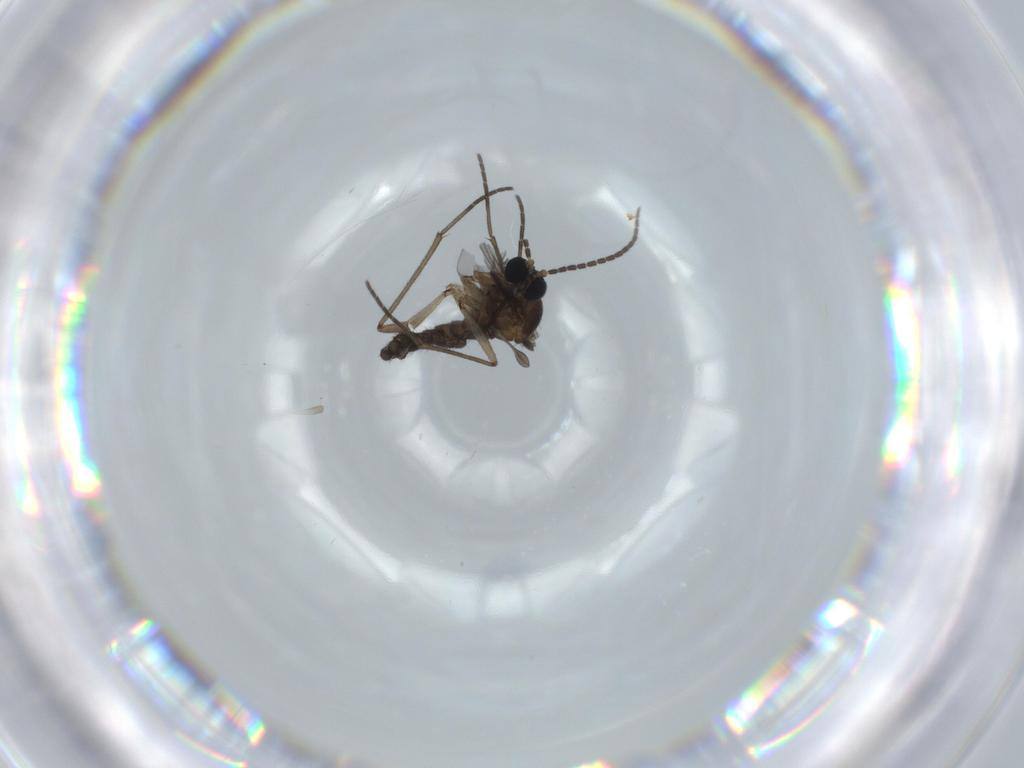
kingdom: Animalia
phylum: Arthropoda
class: Insecta
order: Diptera
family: Sciaridae
